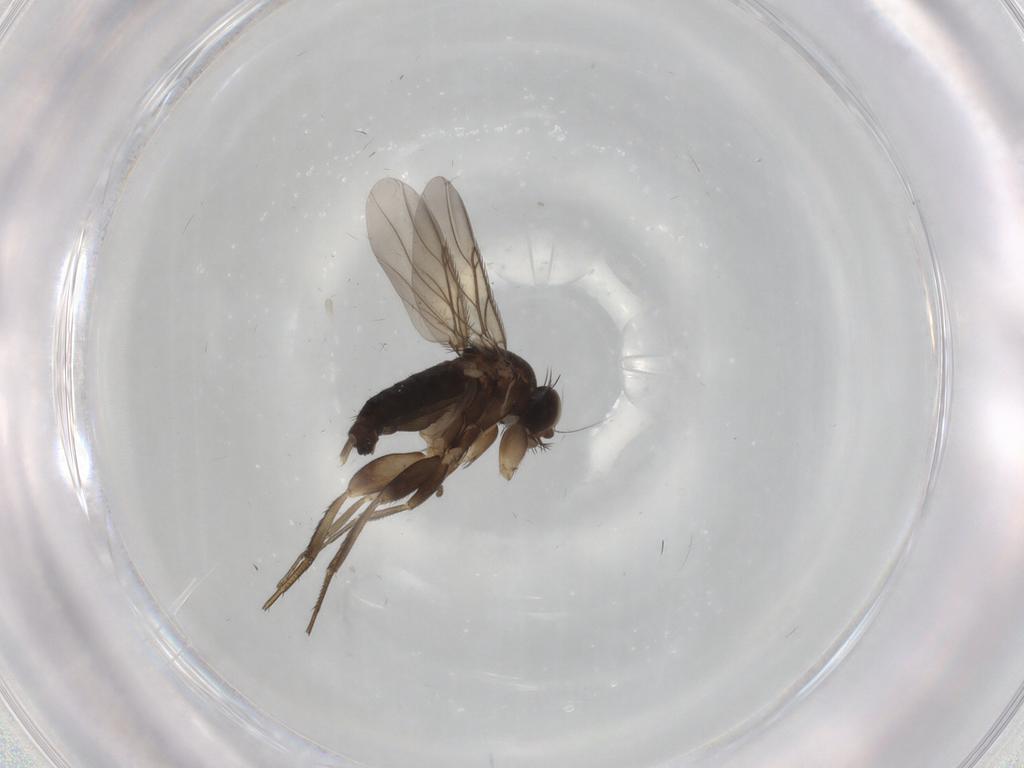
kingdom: Animalia
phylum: Arthropoda
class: Insecta
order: Diptera
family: Phoridae
